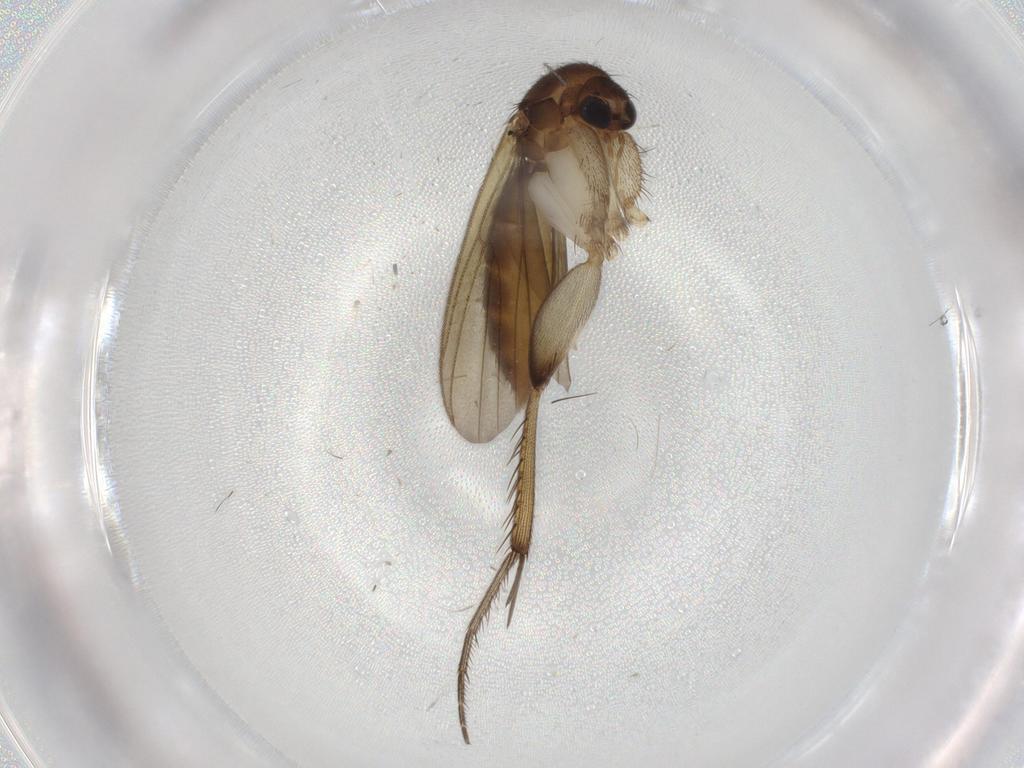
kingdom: Animalia
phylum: Arthropoda
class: Insecta
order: Diptera
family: Mycetophilidae
